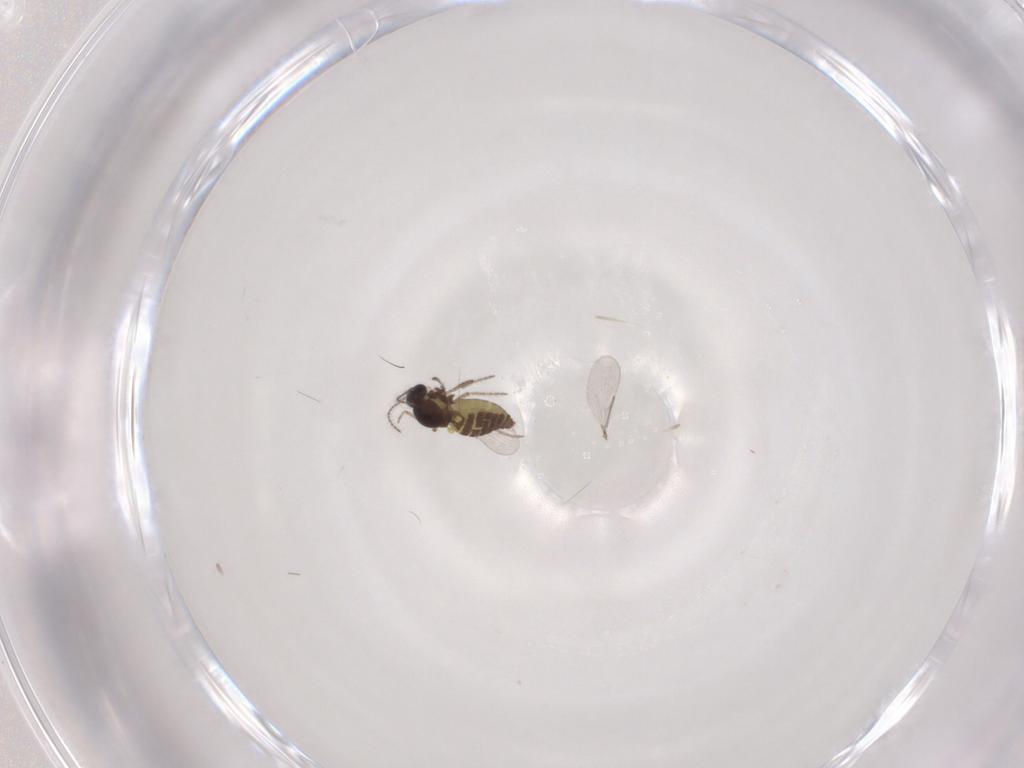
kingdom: Animalia
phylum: Arthropoda
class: Insecta
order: Diptera
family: Ceratopogonidae
